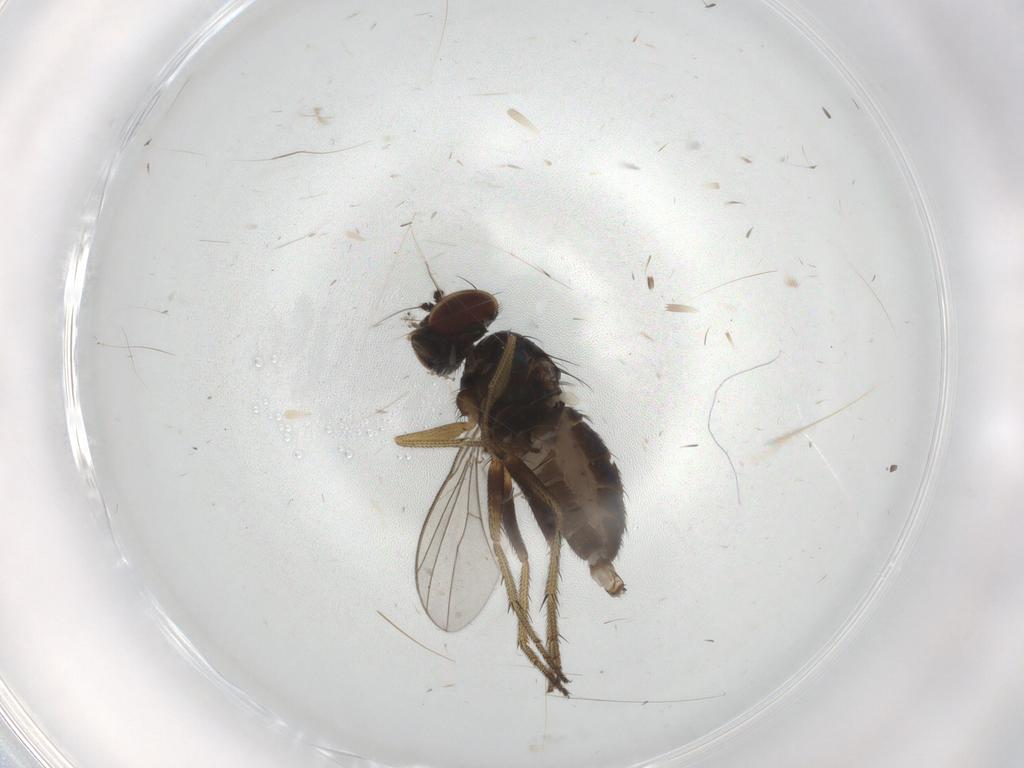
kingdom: Animalia
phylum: Arthropoda
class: Insecta
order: Diptera
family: Dolichopodidae
